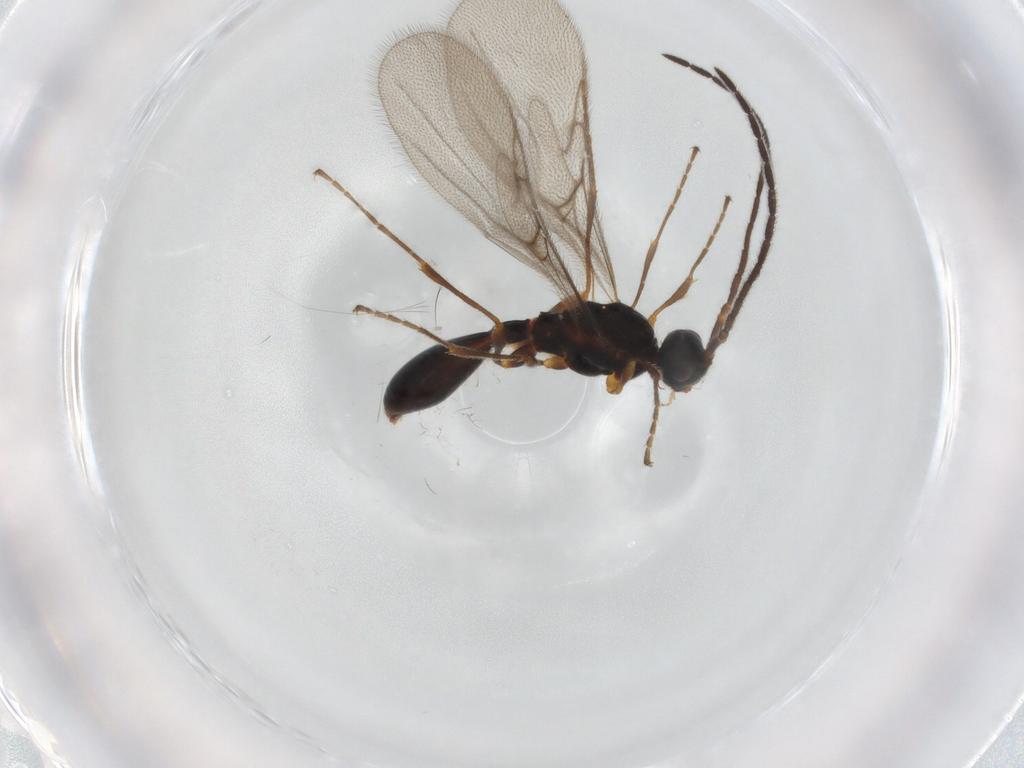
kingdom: Animalia
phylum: Arthropoda
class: Insecta
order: Hymenoptera
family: Diapriidae
